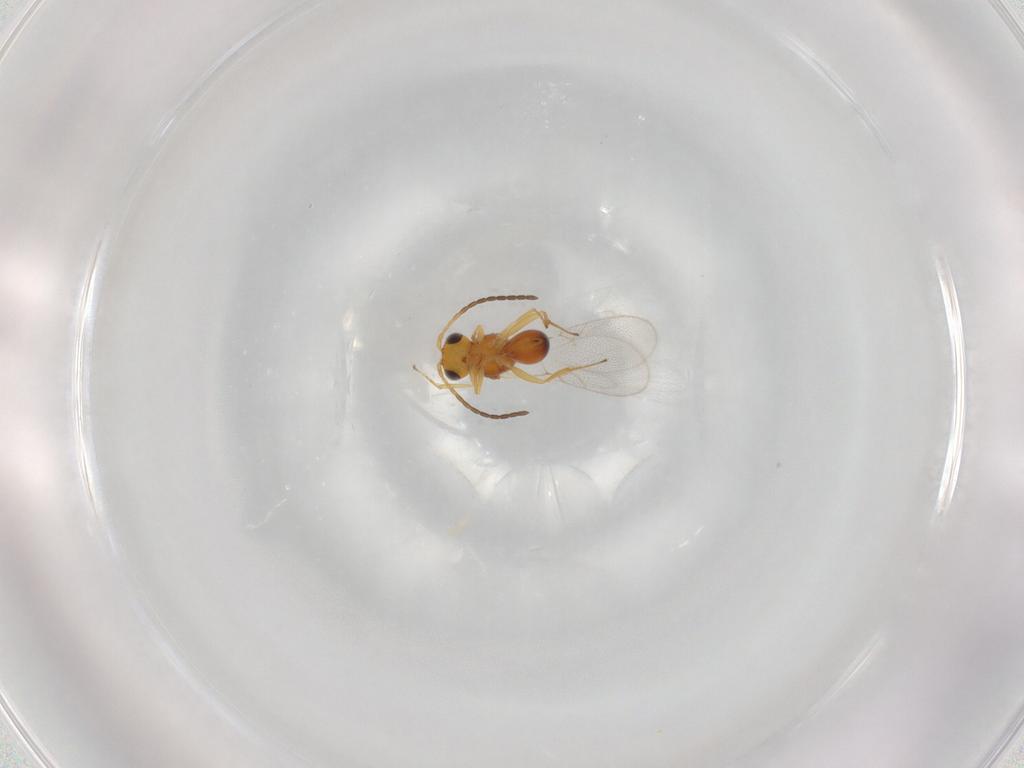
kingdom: Animalia
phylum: Arthropoda
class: Insecta
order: Hymenoptera
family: Figitidae
